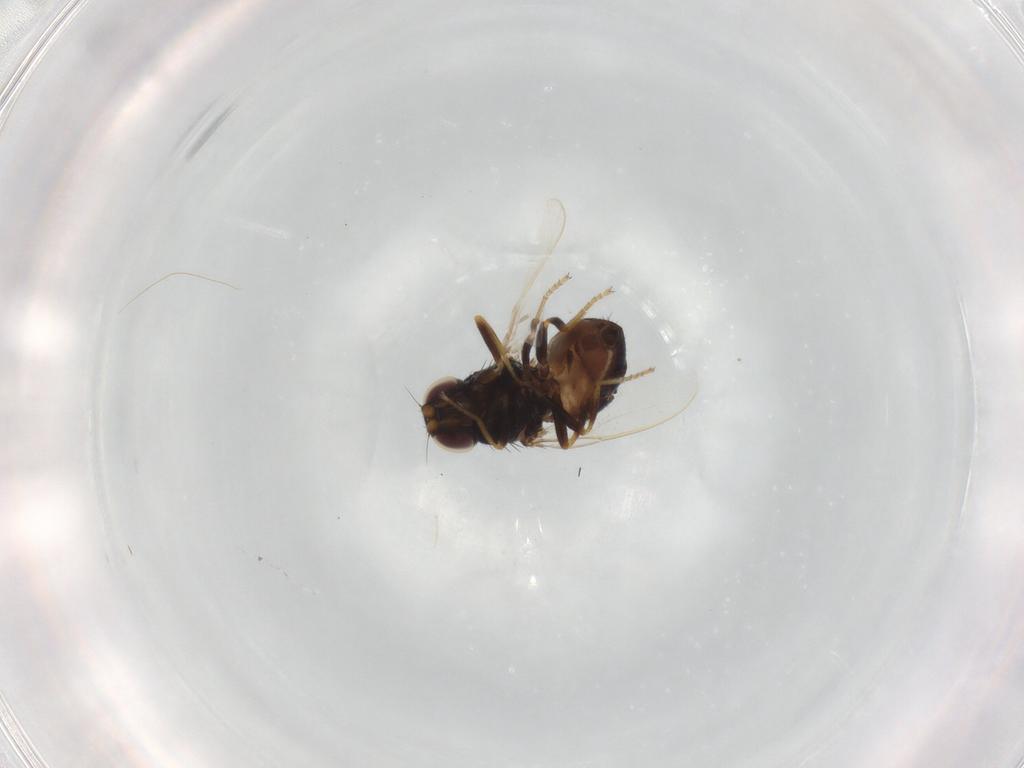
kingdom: Animalia
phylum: Arthropoda
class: Insecta
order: Diptera
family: Chloropidae
